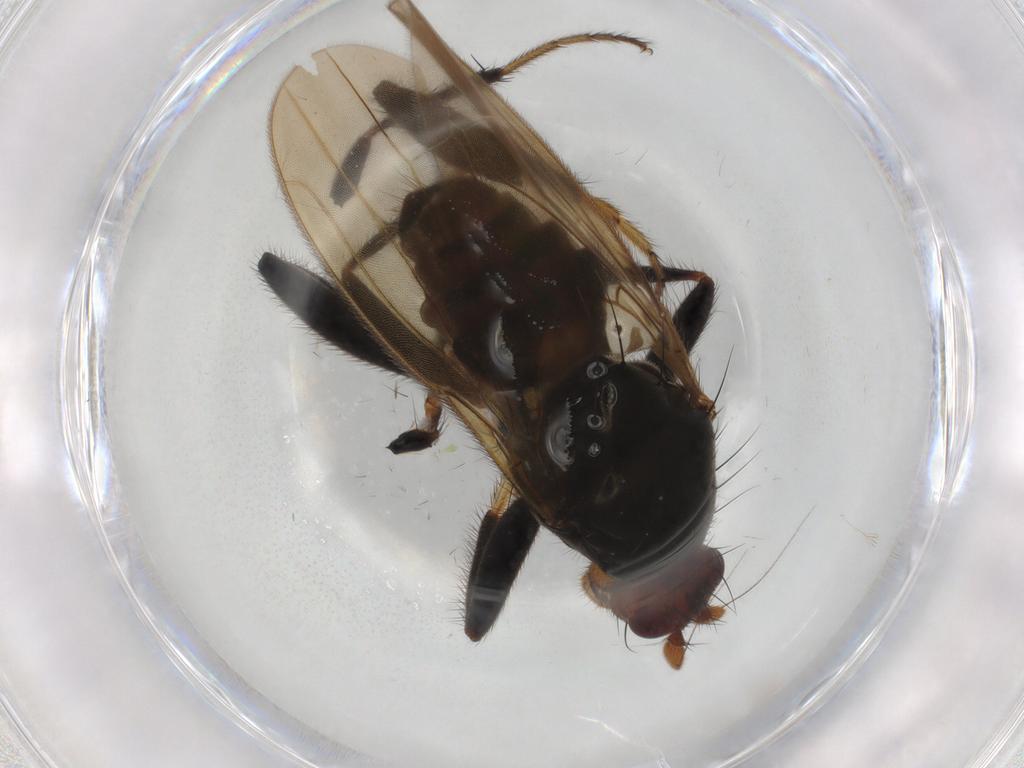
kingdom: Animalia
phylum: Arthropoda
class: Insecta
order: Diptera
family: Sphaeroceridae
